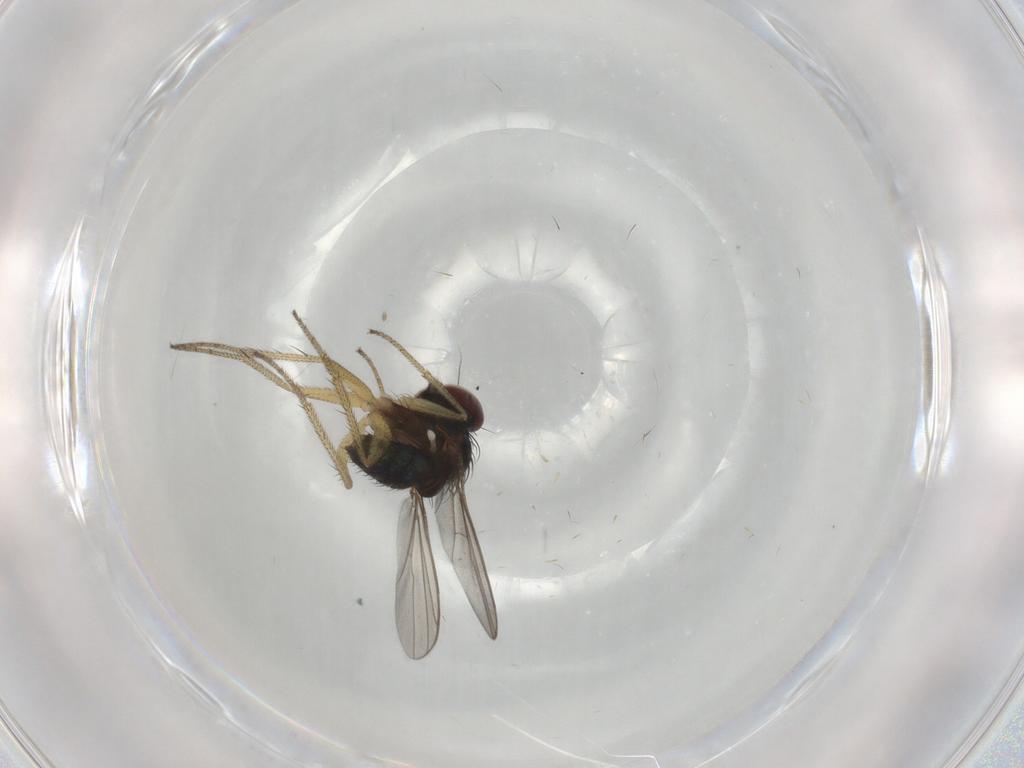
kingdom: Animalia
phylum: Arthropoda
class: Insecta
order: Diptera
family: Dolichopodidae
